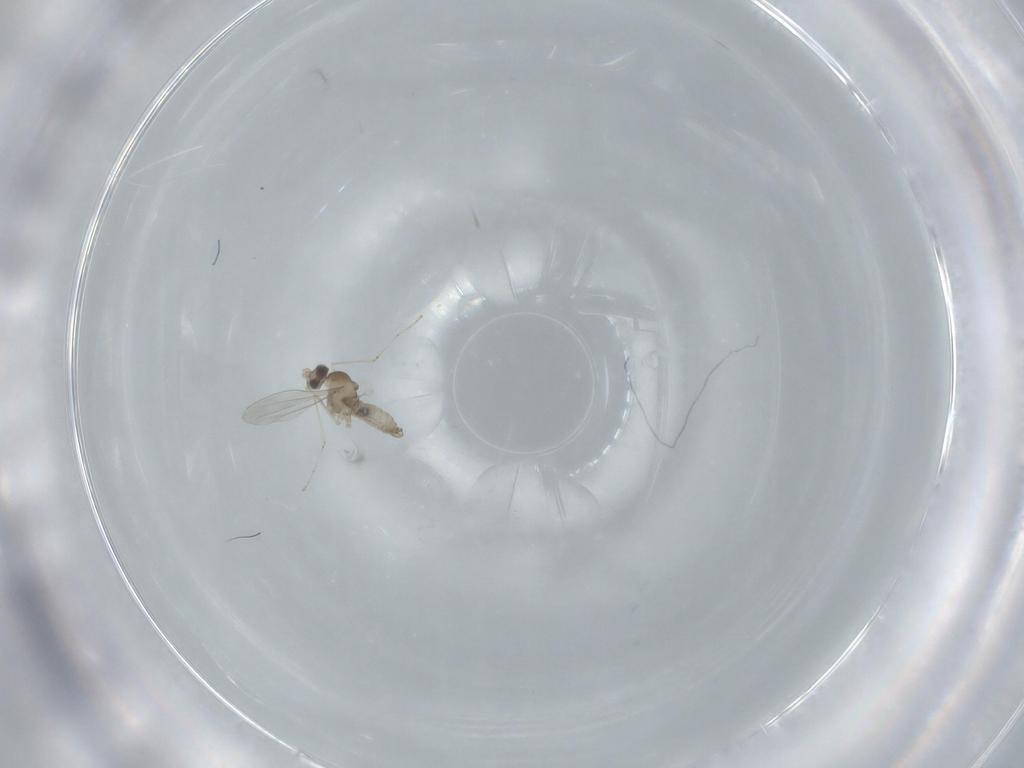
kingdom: Animalia
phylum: Arthropoda
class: Insecta
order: Diptera
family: Cecidomyiidae
